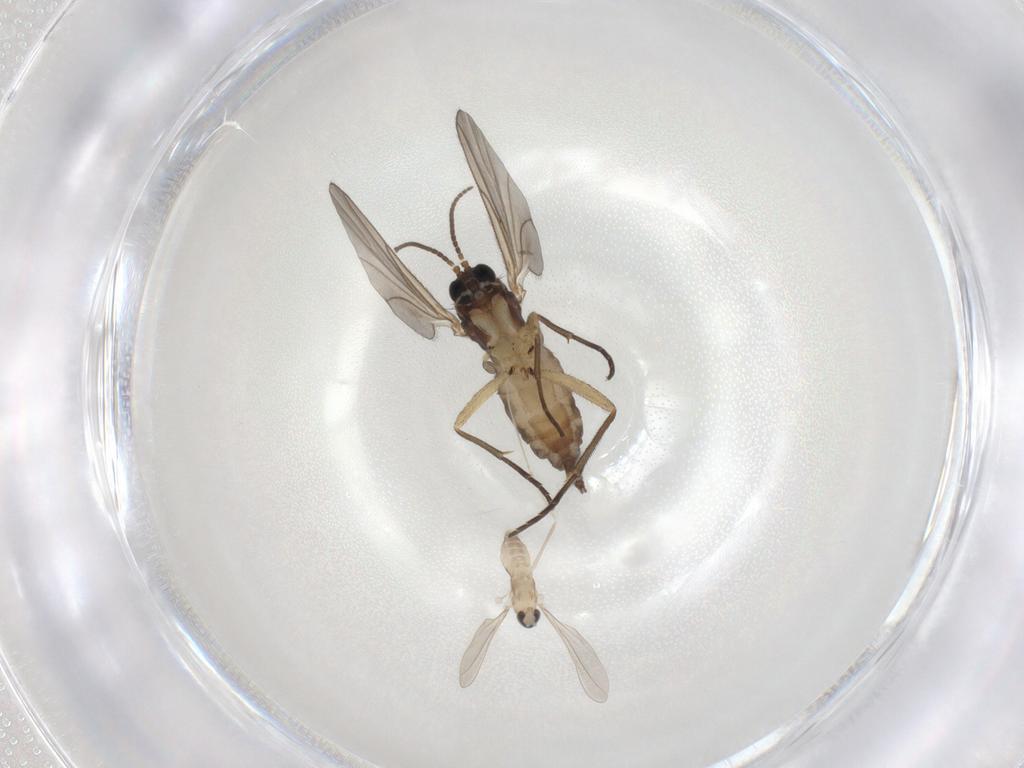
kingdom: Animalia
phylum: Arthropoda
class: Insecta
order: Diptera
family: Sciaridae
